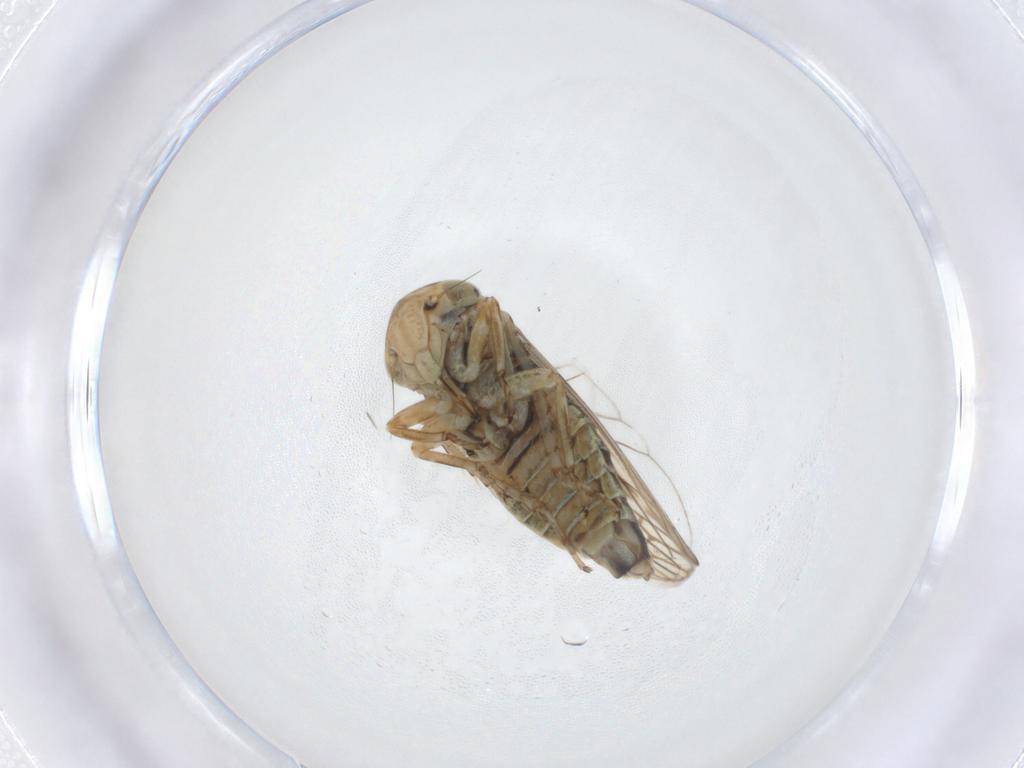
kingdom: Animalia
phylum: Arthropoda
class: Insecta
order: Hemiptera
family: Cicadellidae
